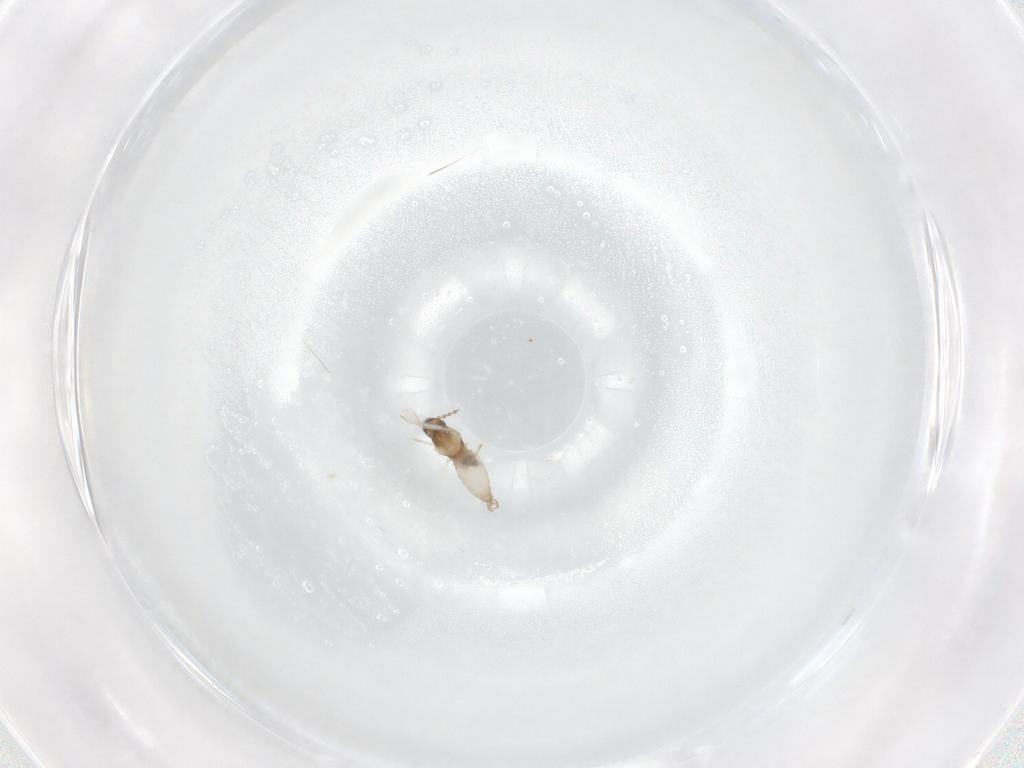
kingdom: Animalia
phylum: Arthropoda
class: Insecta
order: Diptera
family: Cecidomyiidae
